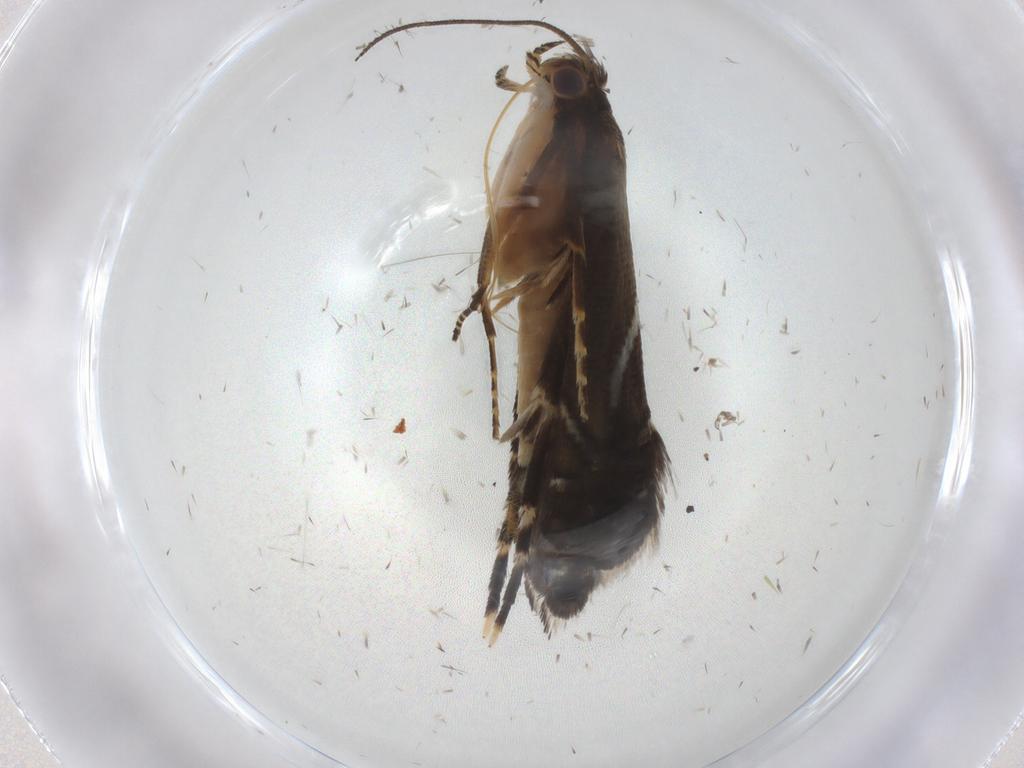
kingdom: Animalia
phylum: Arthropoda
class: Insecta
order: Lepidoptera
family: Glyphipterigidae
